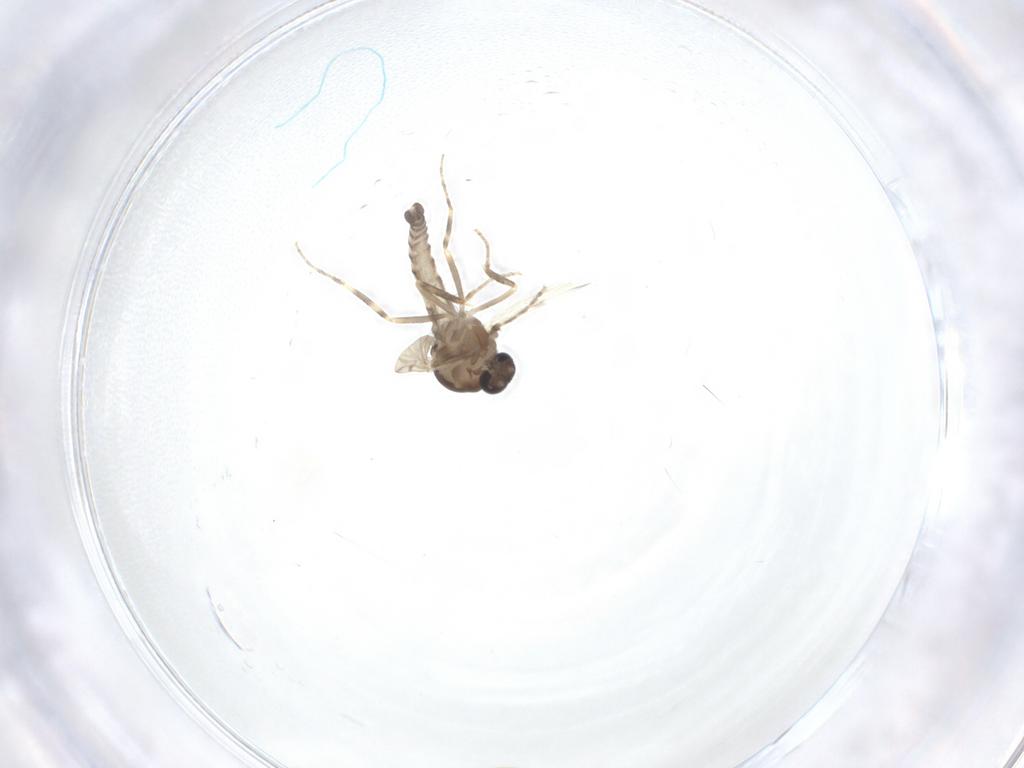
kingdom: Animalia
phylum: Arthropoda
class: Insecta
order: Diptera
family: Ceratopogonidae
